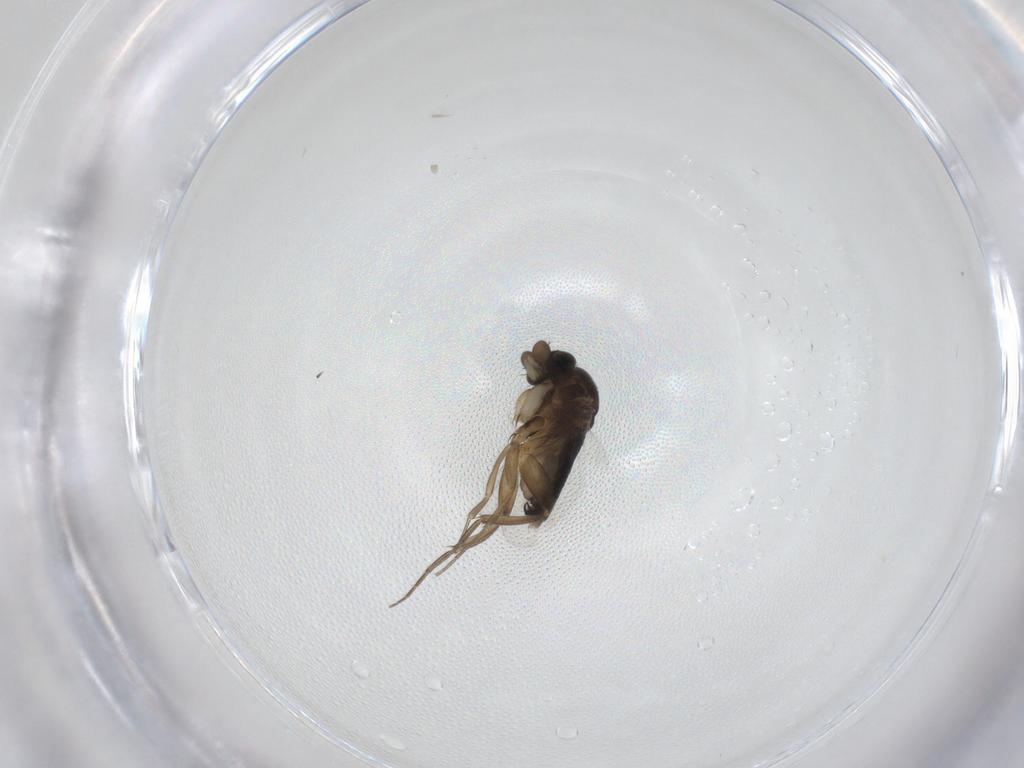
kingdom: Animalia
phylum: Arthropoda
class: Insecta
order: Diptera
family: Phoridae
